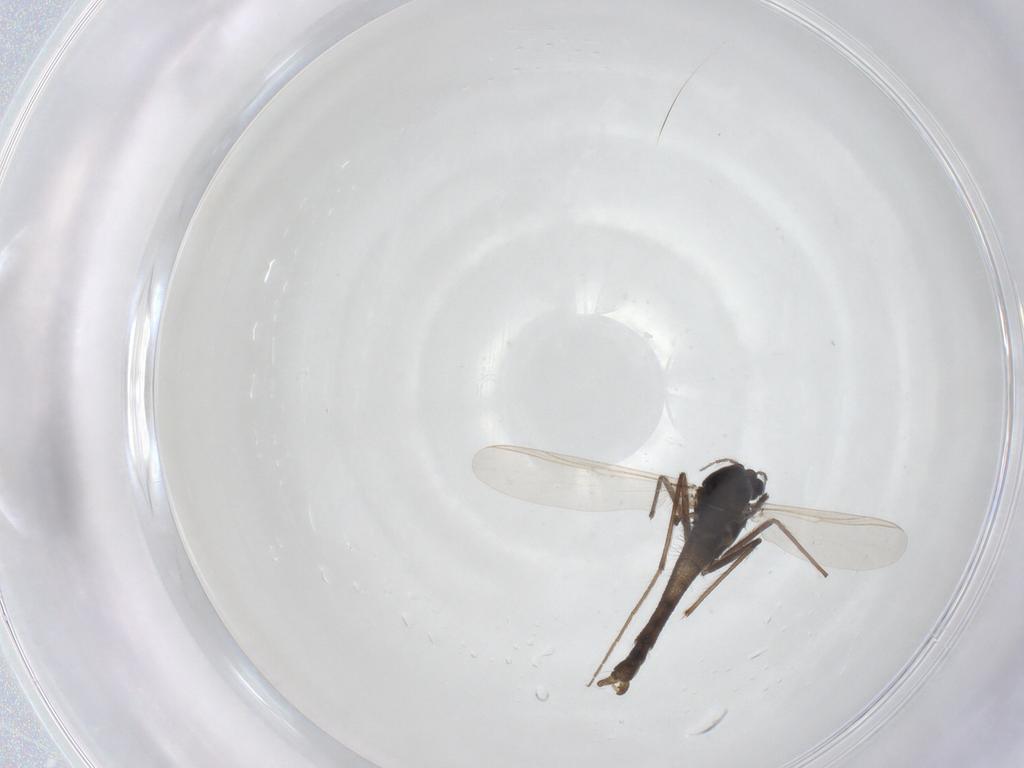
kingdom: Animalia
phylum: Arthropoda
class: Insecta
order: Diptera
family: Chironomidae
